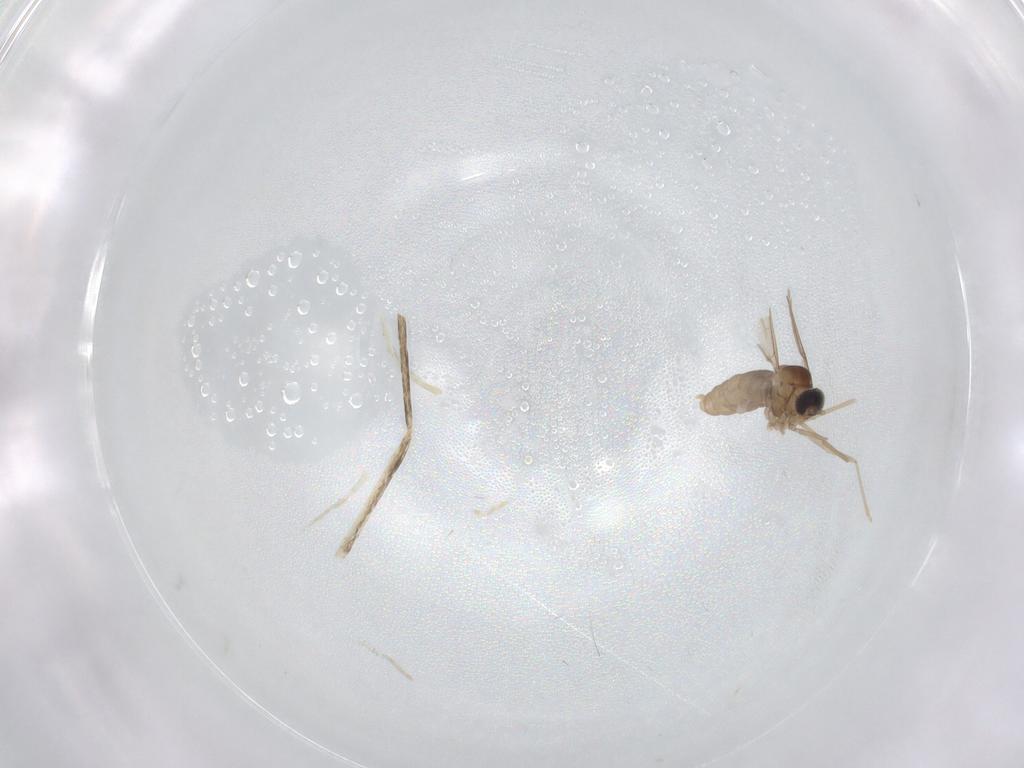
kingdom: Animalia
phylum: Arthropoda
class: Insecta
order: Diptera
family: Cecidomyiidae
